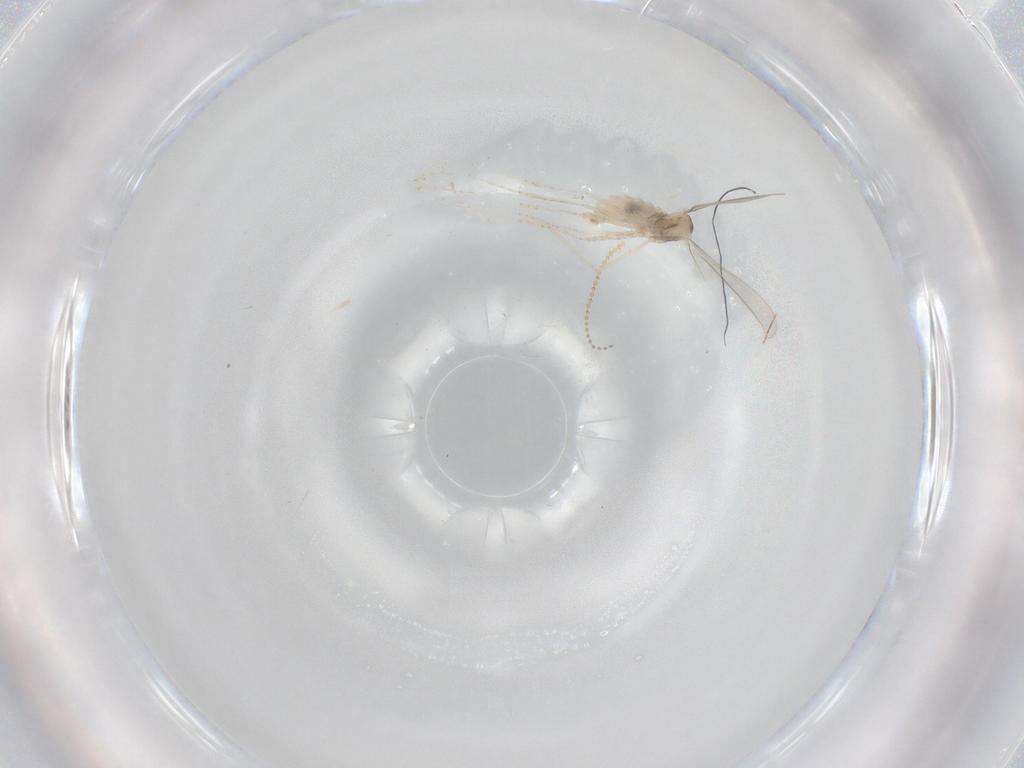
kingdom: Animalia
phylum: Arthropoda
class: Insecta
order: Diptera
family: Cecidomyiidae
